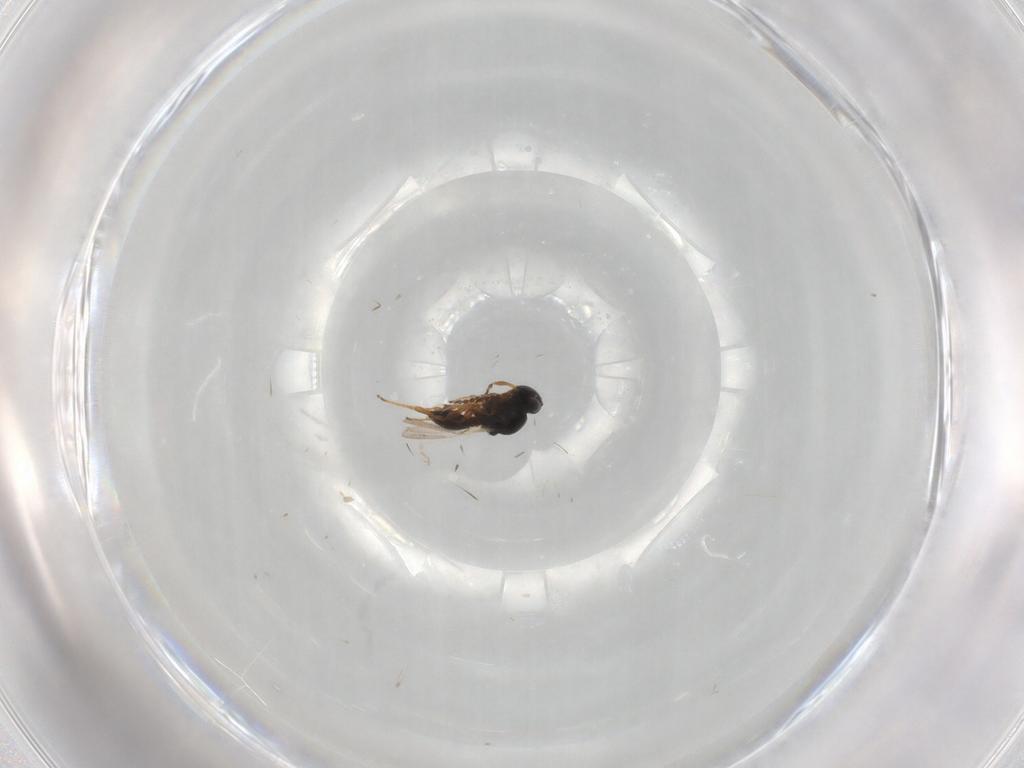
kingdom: Animalia
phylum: Arthropoda
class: Insecta
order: Hymenoptera
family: Platygastridae
